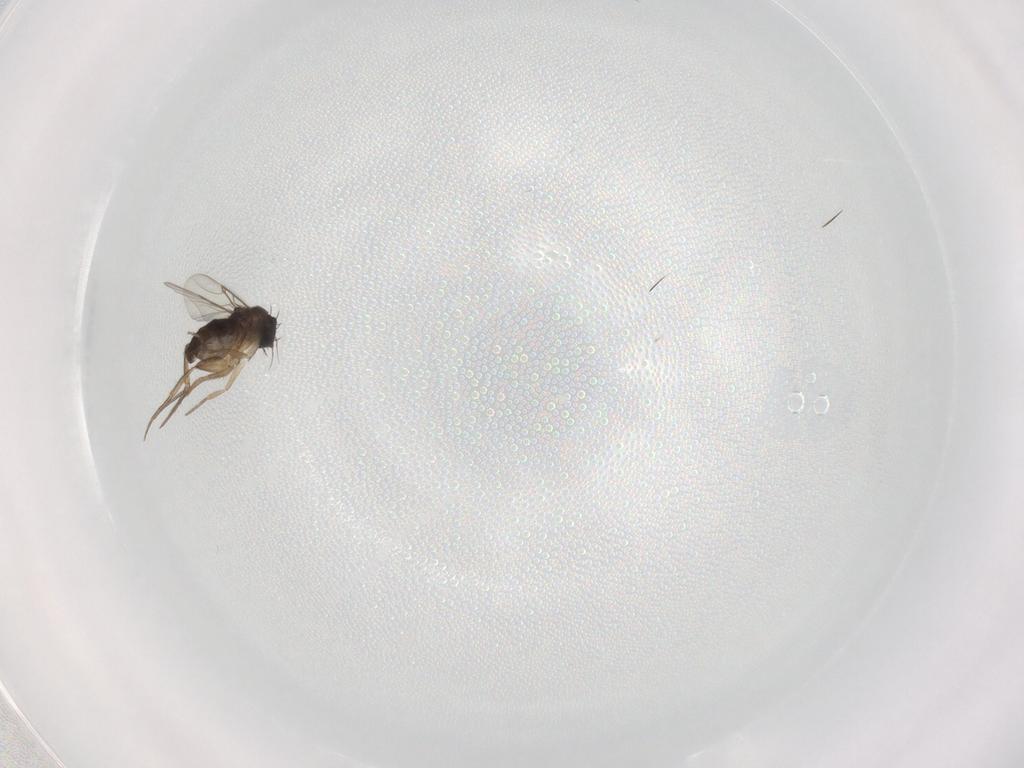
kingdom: Animalia
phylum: Arthropoda
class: Insecta
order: Diptera
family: Phoridae
